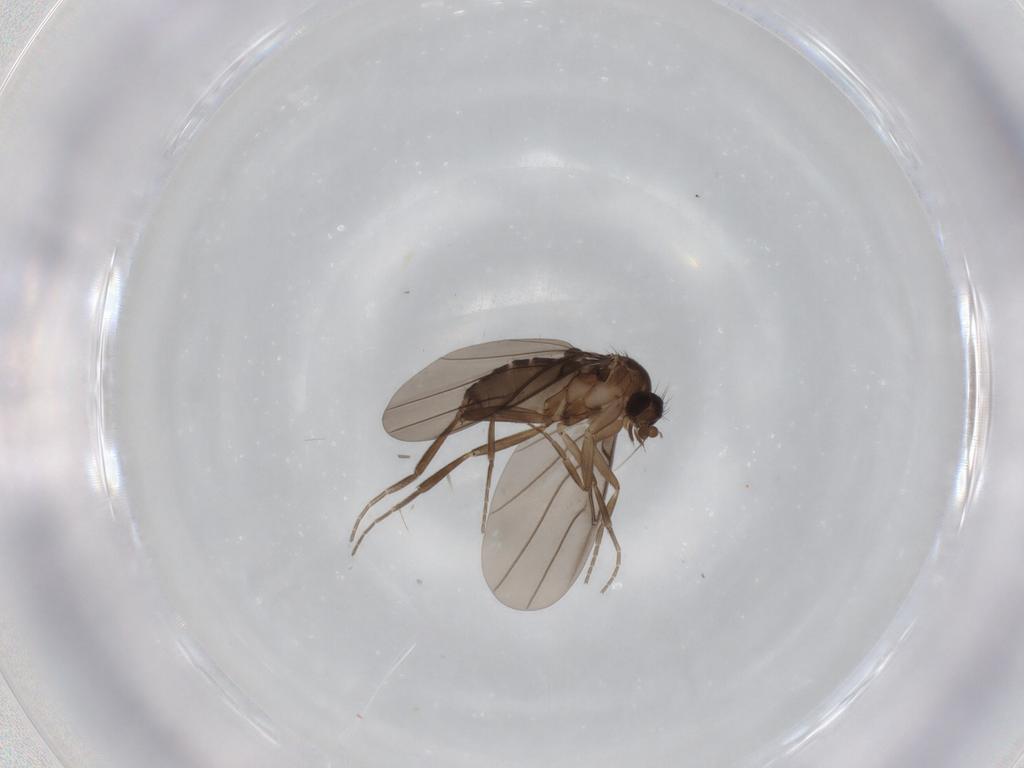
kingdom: Animalia
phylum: Arthropoda
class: Insecta
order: Diptera
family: Phoridae
